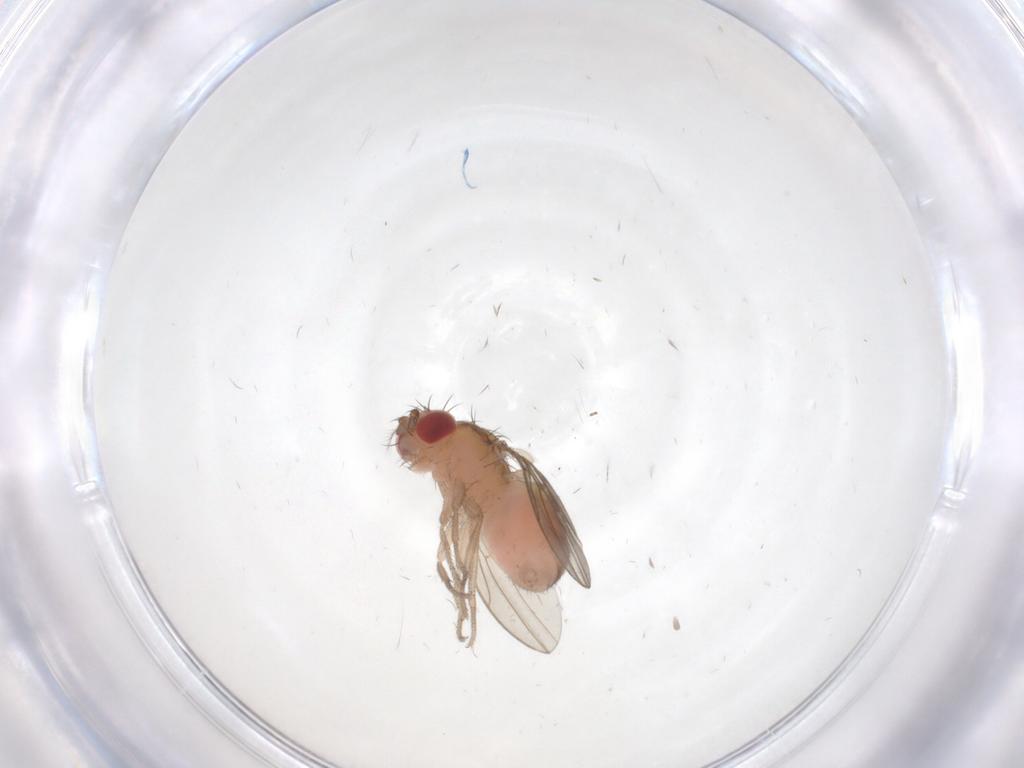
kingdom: Animalia
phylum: Arthropoda
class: Insecta
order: Diptera
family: Drosophilidae
